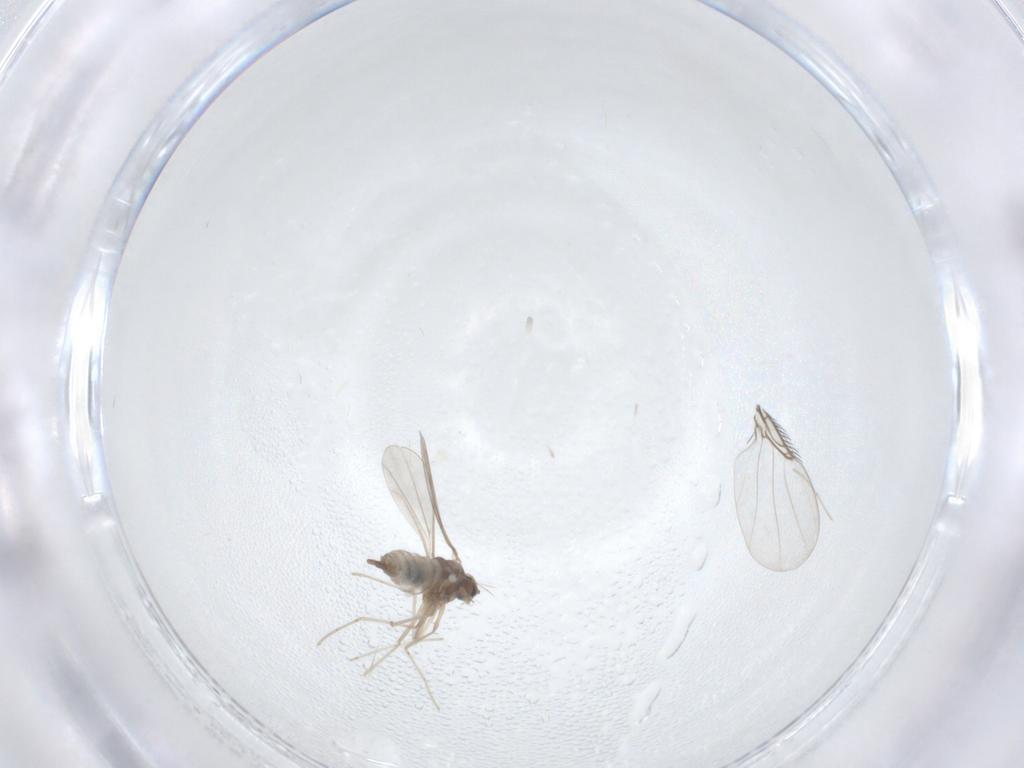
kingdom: Animalia
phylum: Arthropoda
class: Insecta
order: Diptera
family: Cecidomyiidae
